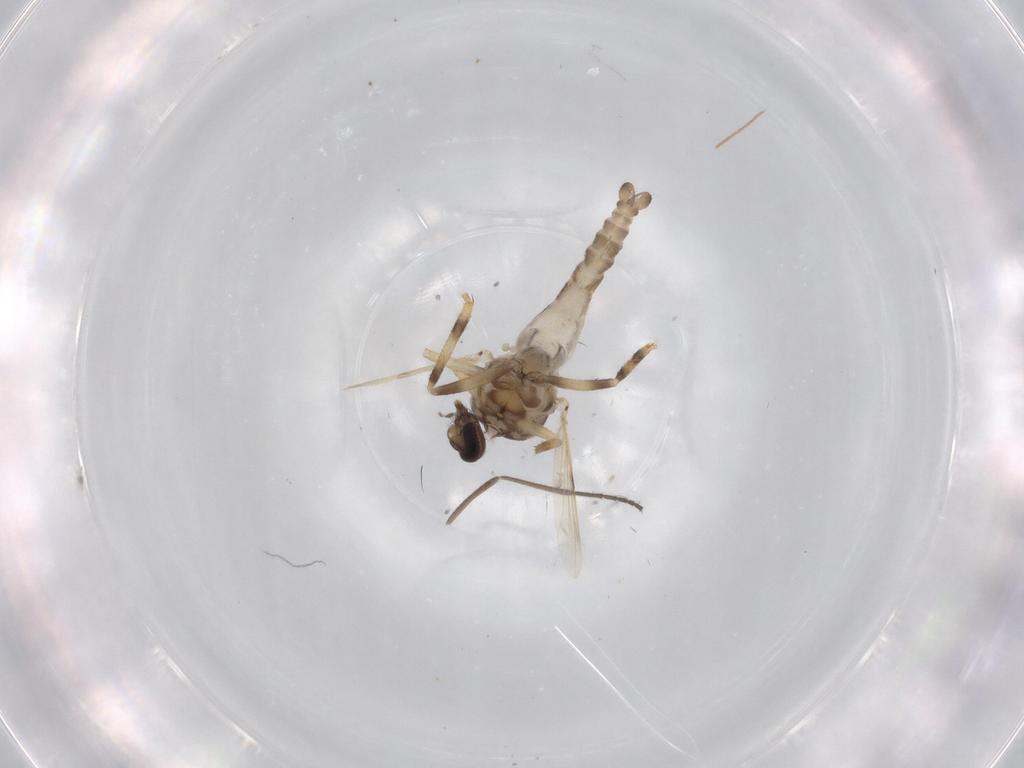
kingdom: Animalia
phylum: Arthropoda
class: Insecta
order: Diptera
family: Ceratopogonidae
